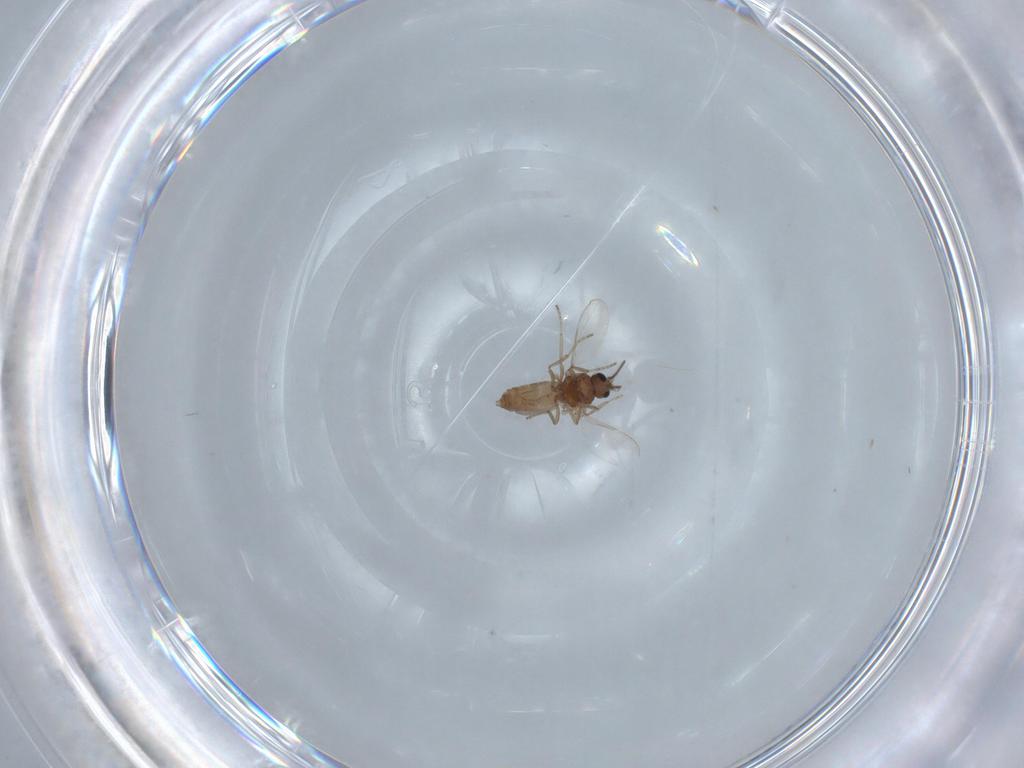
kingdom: Animalia
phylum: Arthropoda
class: Insecta
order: Diptera
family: Ceratopogonidae
